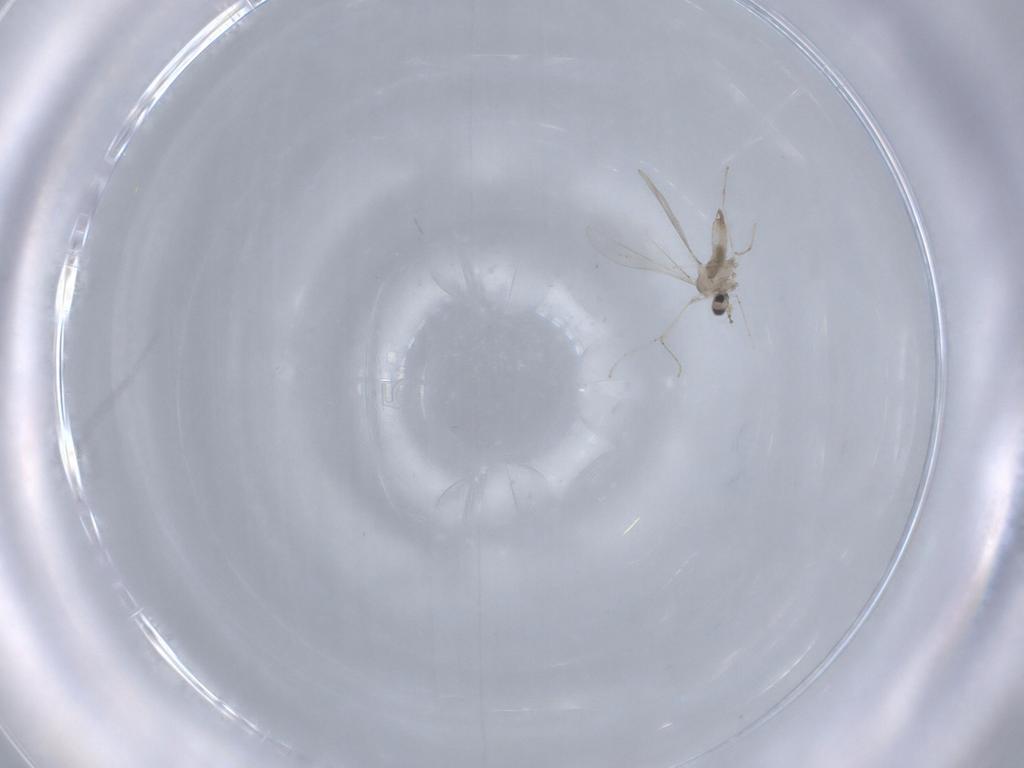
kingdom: Animalia
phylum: Arthropoda
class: Insecta
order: Diptera
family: Cecidomyiidae
